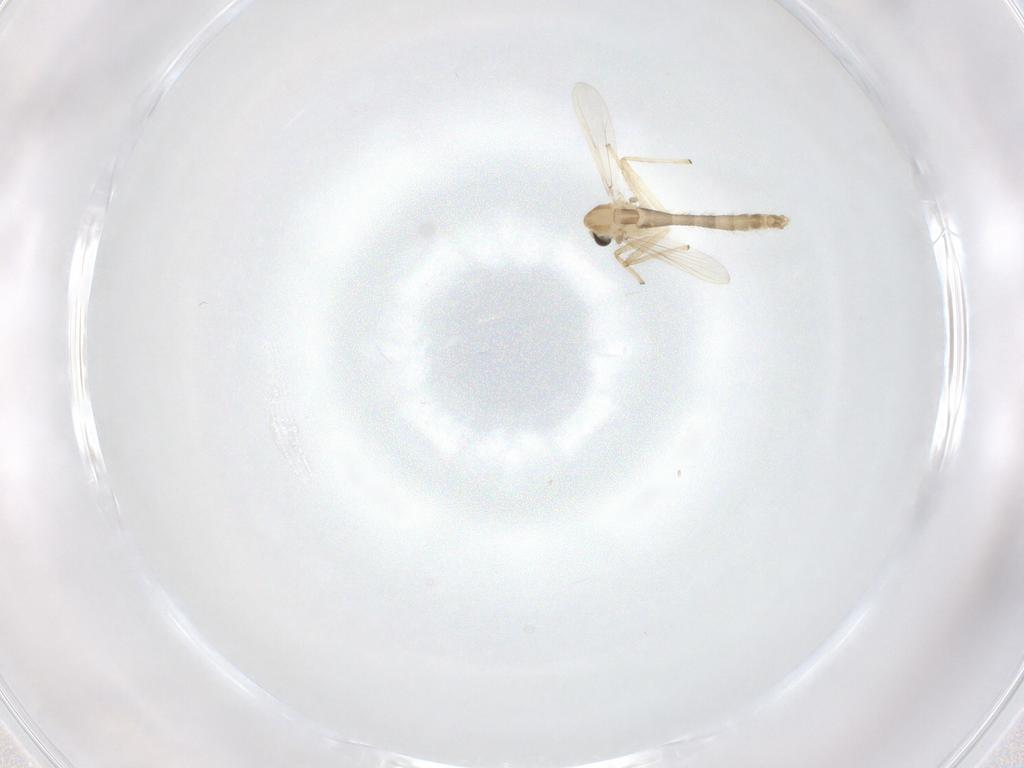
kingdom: Animalia
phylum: Arthropoda
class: Insecta
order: Diptera
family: Chironomidae
